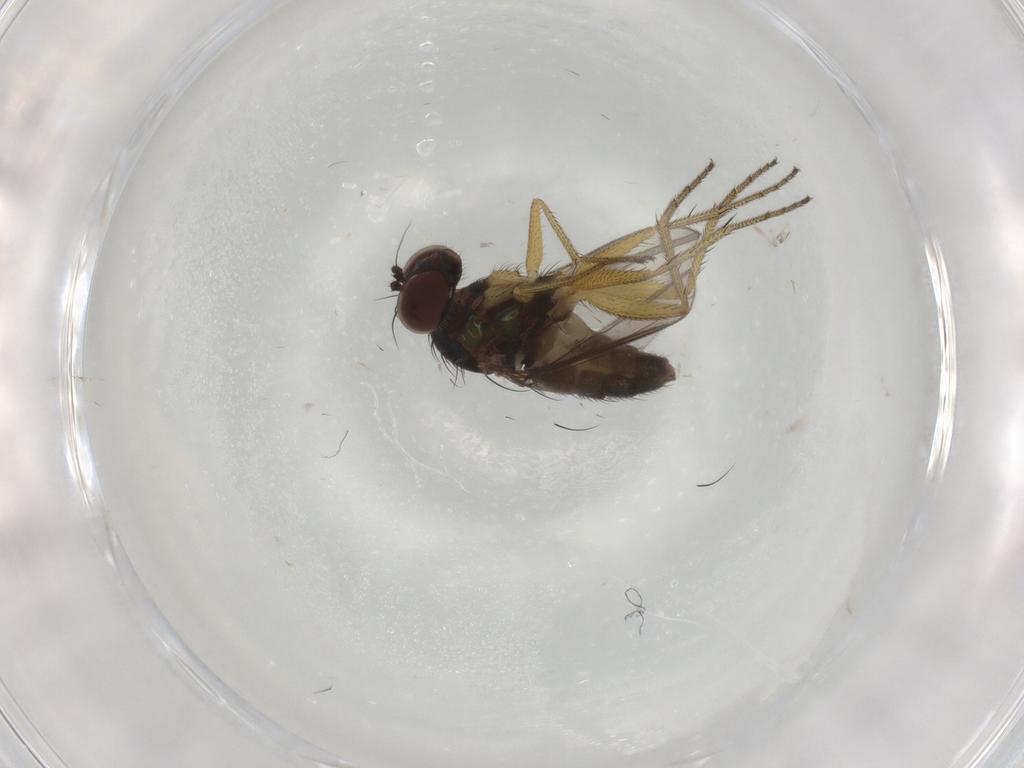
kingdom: Animalia
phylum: Arthropoda
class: Insecta
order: Diptera
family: Dolichopodidae
